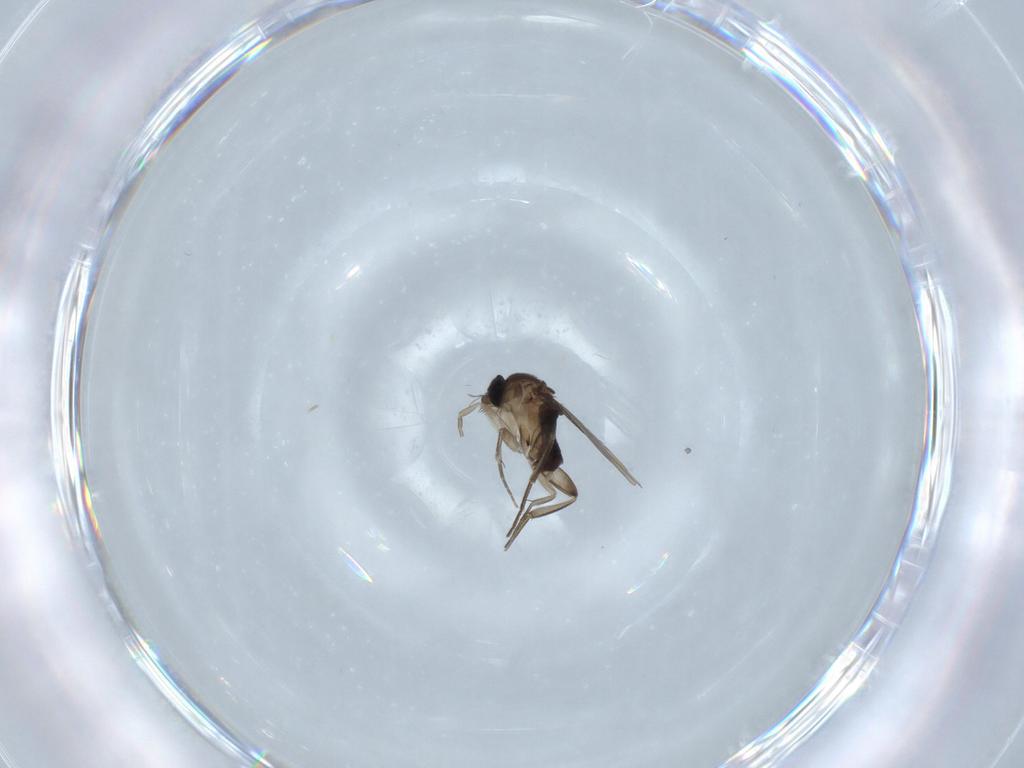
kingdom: Animalia
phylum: Arthropoda
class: Insecta
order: Diptera
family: Phoridae
